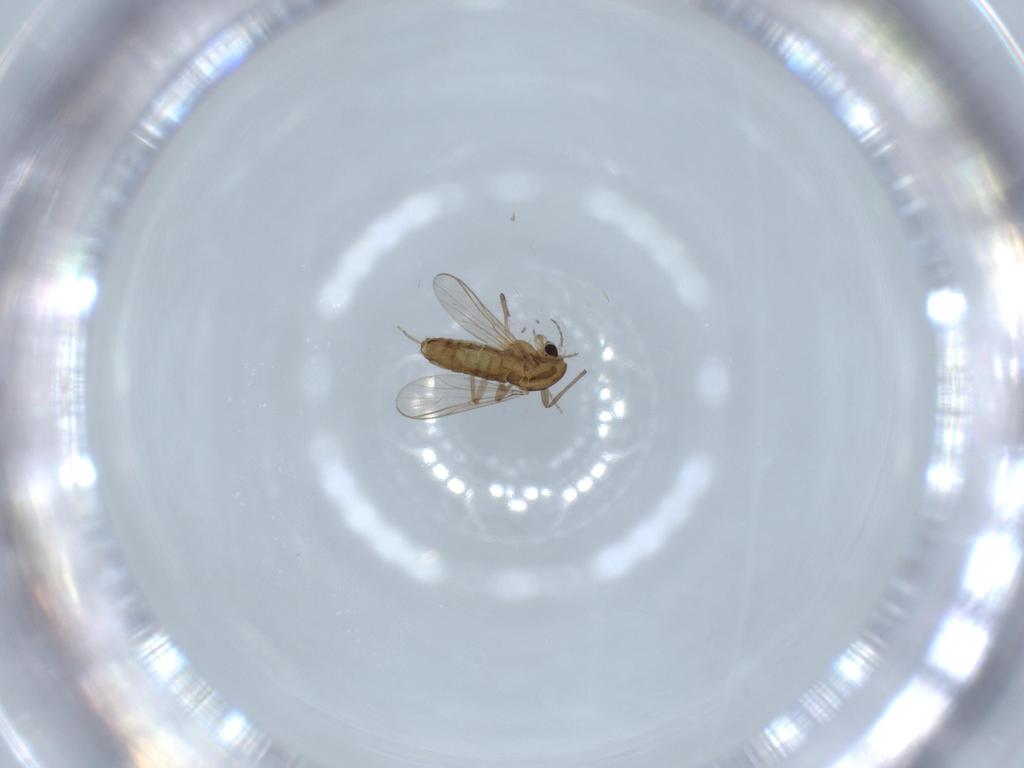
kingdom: Animalia
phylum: Arthropoda
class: Insecta
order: Diptera
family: Chironomidae
